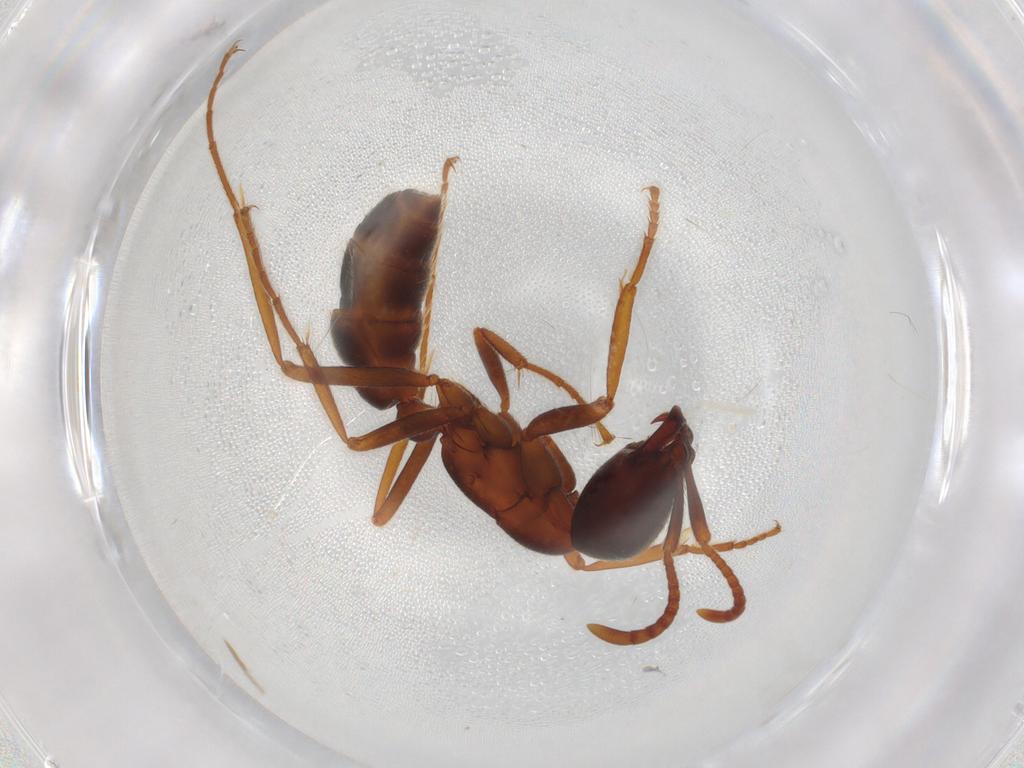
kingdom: Animalia
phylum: Arthropoda
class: Insecta
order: Hymenoptera
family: Formicidae
